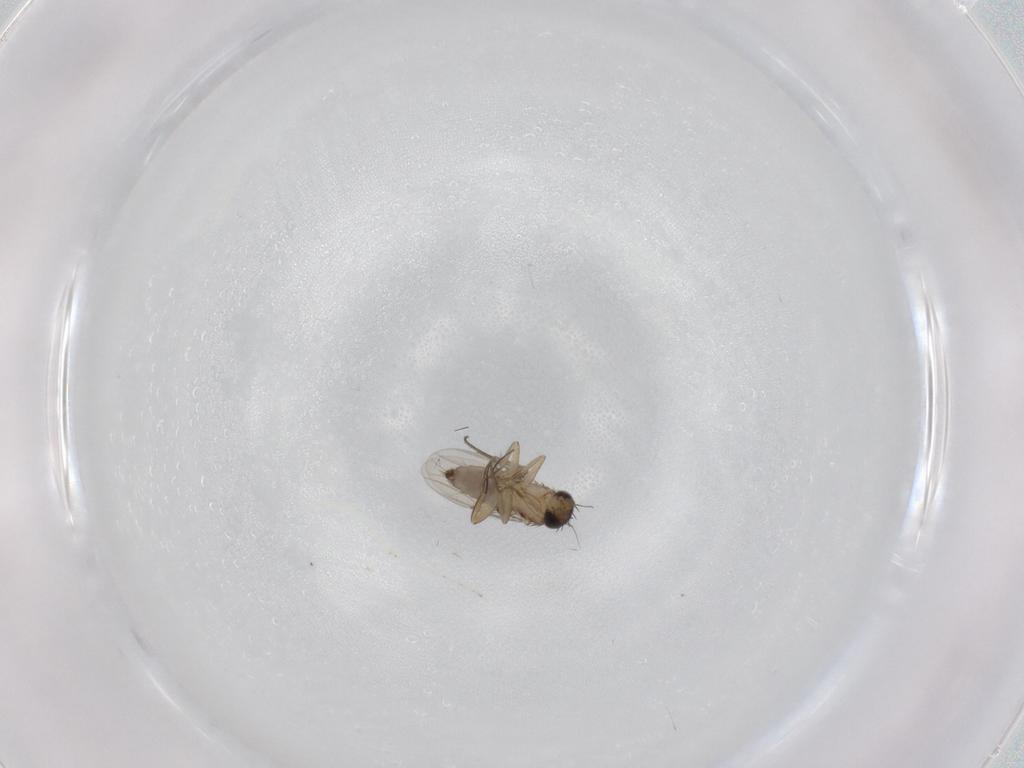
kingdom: Animalia
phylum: Arthropoda
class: Insecta
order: Diptera
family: Phoridae
